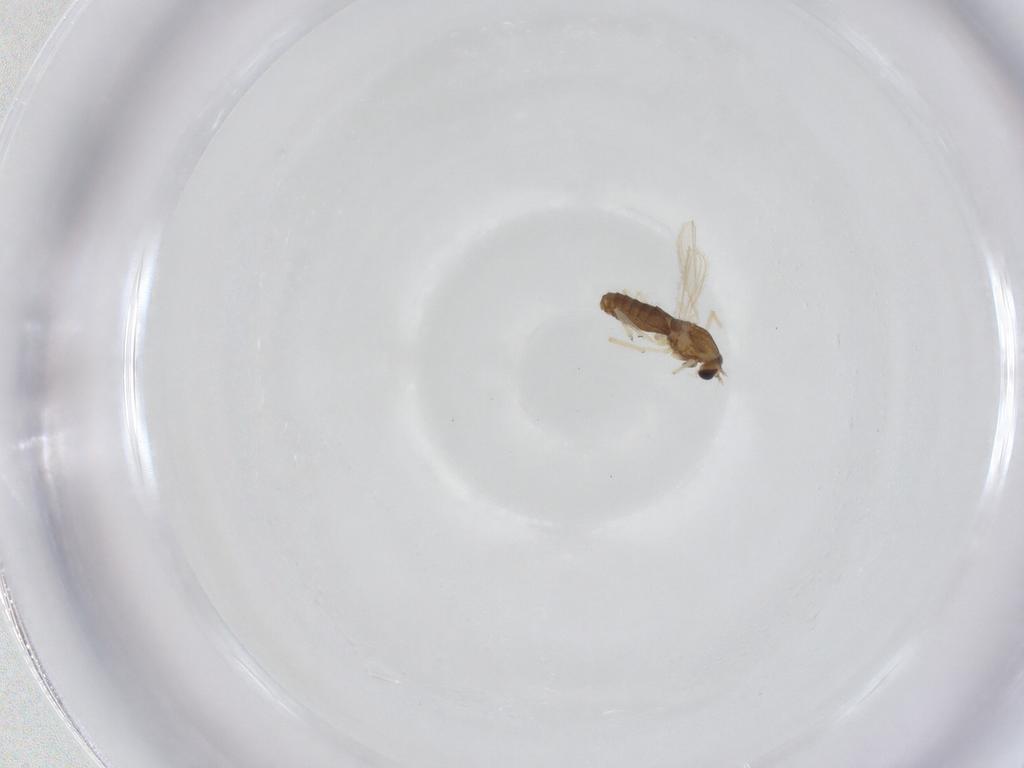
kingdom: Animalia
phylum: Arthropoda
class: Insecta
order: Diptera
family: Chironomidae
